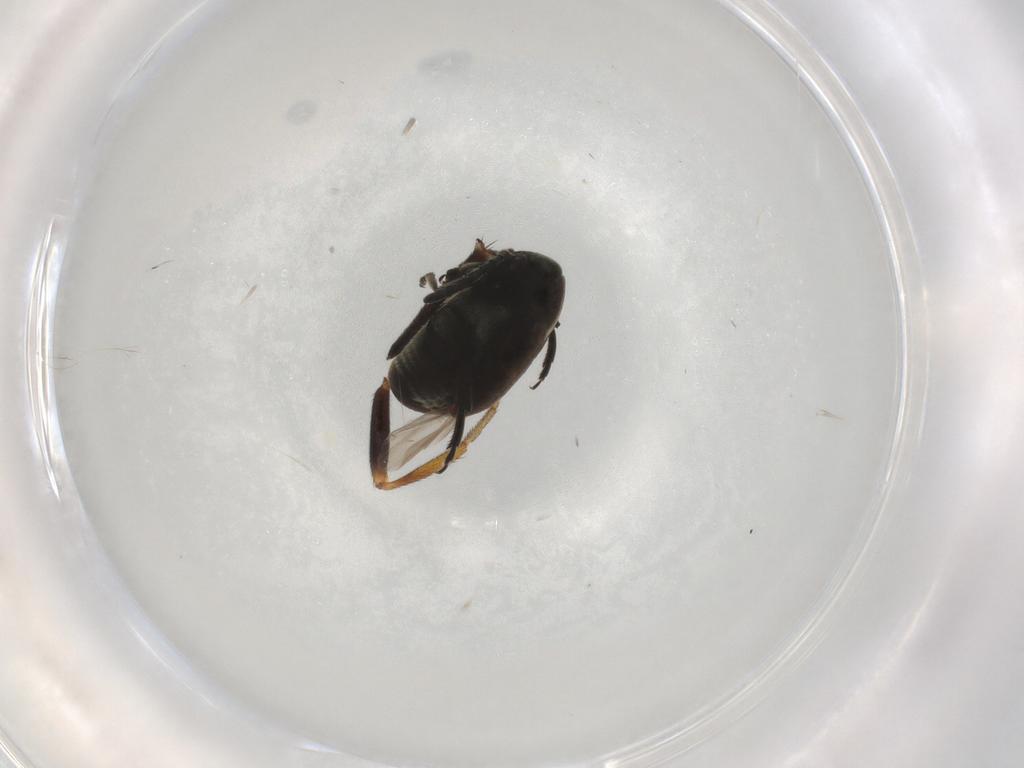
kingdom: Animalia
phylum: Arthropoda
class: Insecta
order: Coleoptera
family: Chrysomelidae
